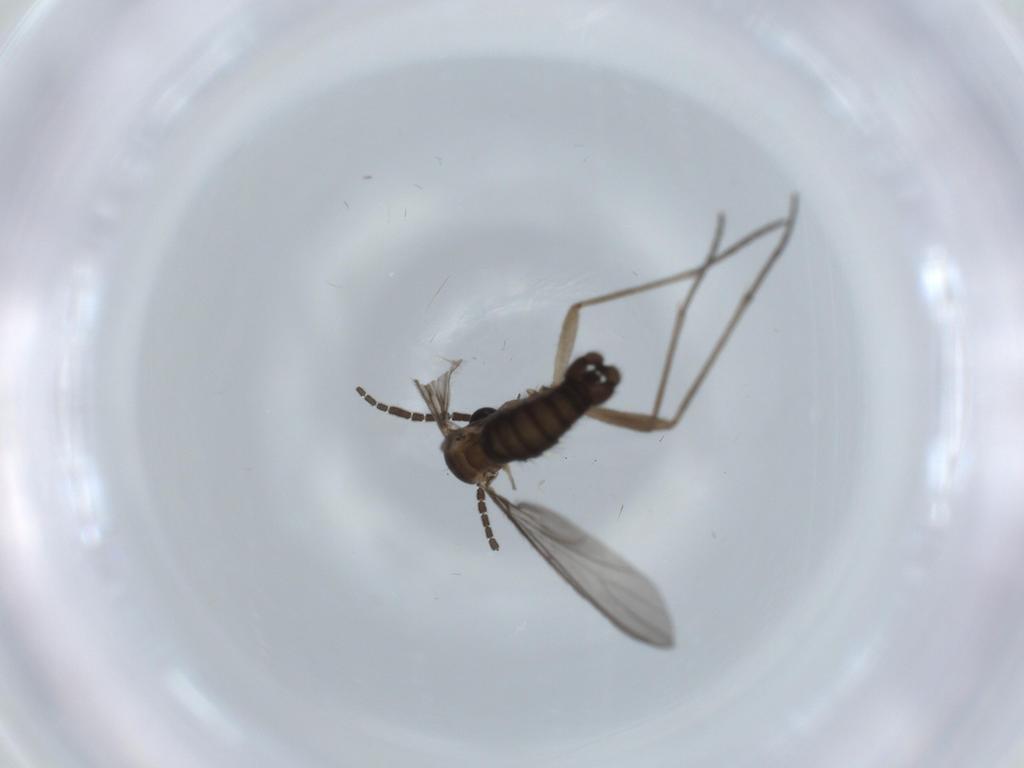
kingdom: Animalia
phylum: Arthropoda
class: Insecta
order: Diptera
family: Sciaridae
